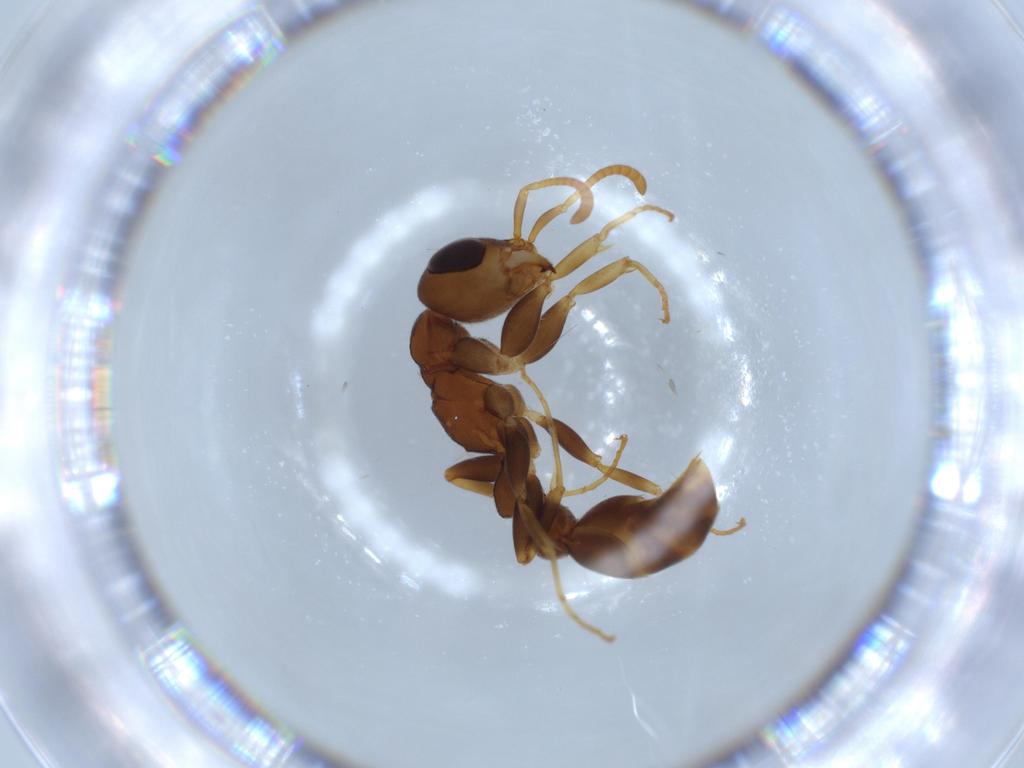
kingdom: Animalia
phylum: Arthropoda
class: Insecta
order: Hymenoptera
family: Formicidae
